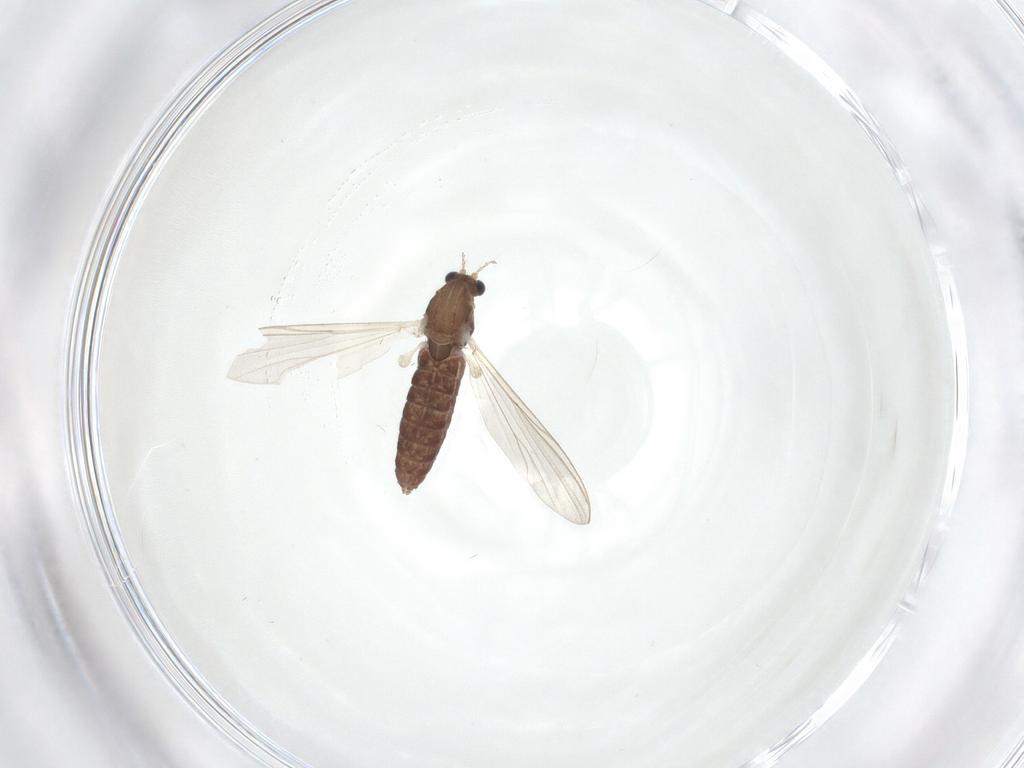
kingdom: Animalia
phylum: Arthropoda
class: Insecta
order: Diptera
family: Chironomidae
